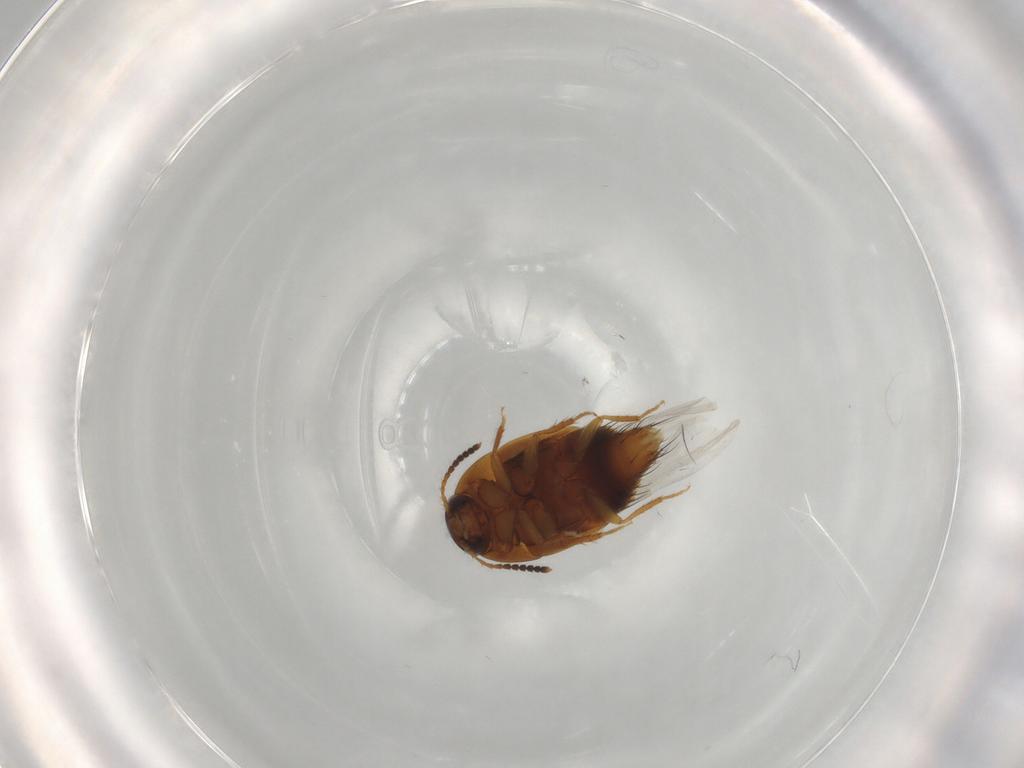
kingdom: Animalia
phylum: Arthropoda
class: Insecta
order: Coleoptera
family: Staphylinidae
